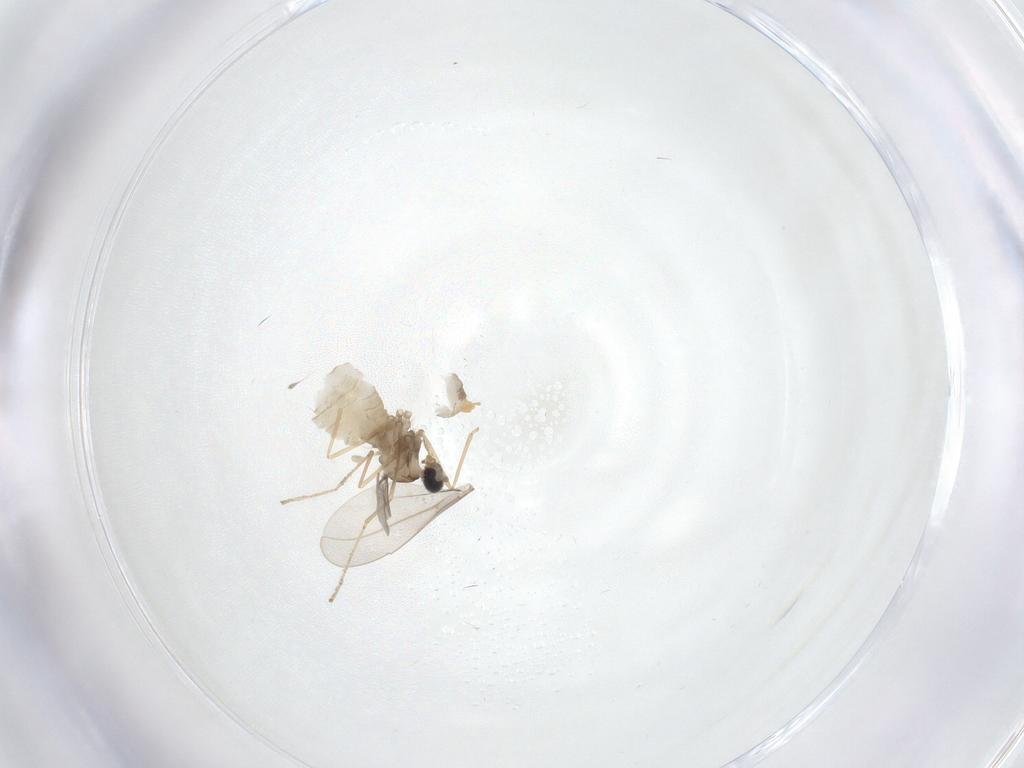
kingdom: Animalia
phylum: Arthropoda
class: Insecta
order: Diptera
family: Cecidomyiidae
